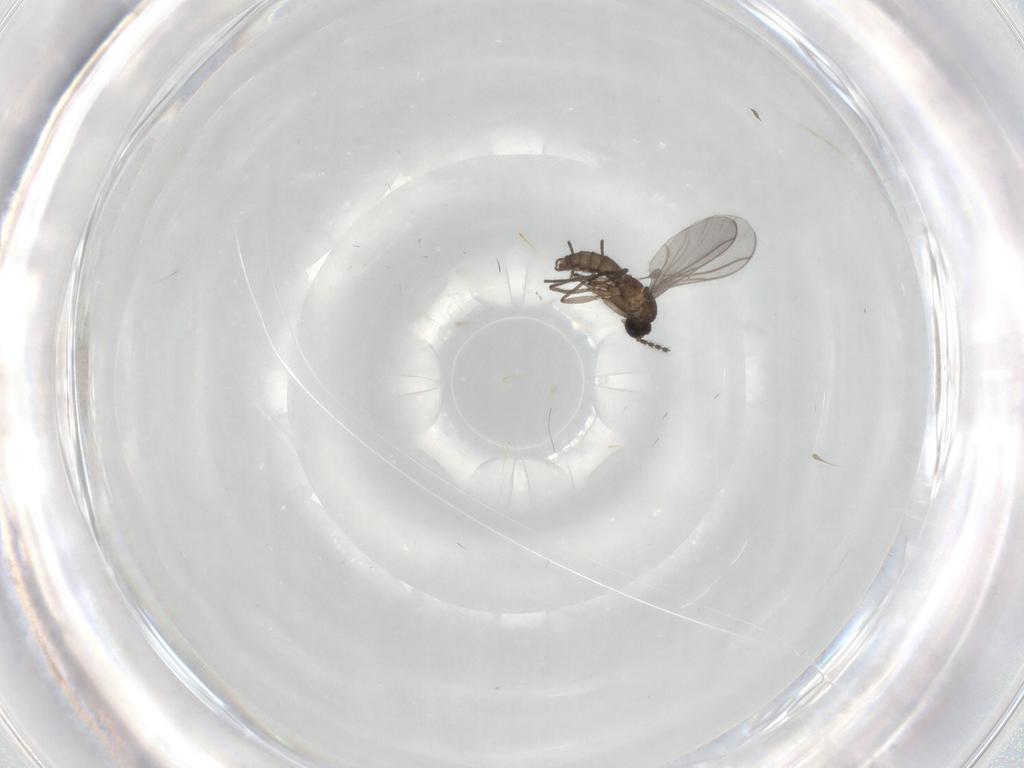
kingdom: Animalia
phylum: Arthropoda
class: Insecta
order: Diptera
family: Cecidomyiidae
